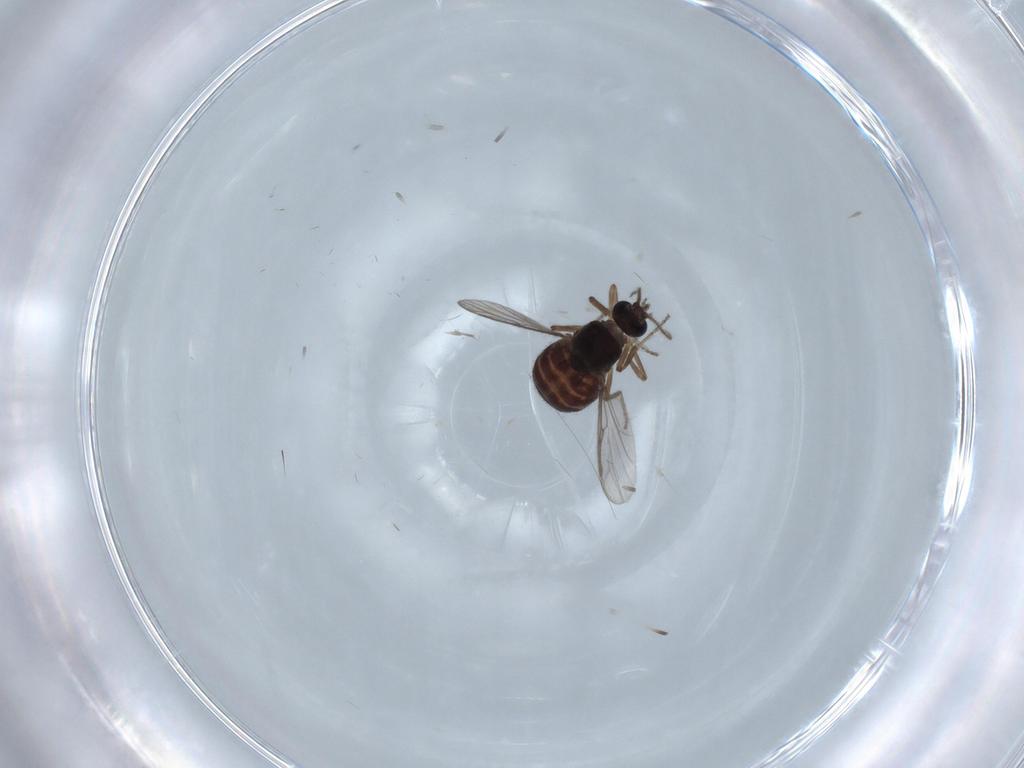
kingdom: Animalia
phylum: Arthropoda
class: Insecta
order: Diptera
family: Ceratopogonidae
